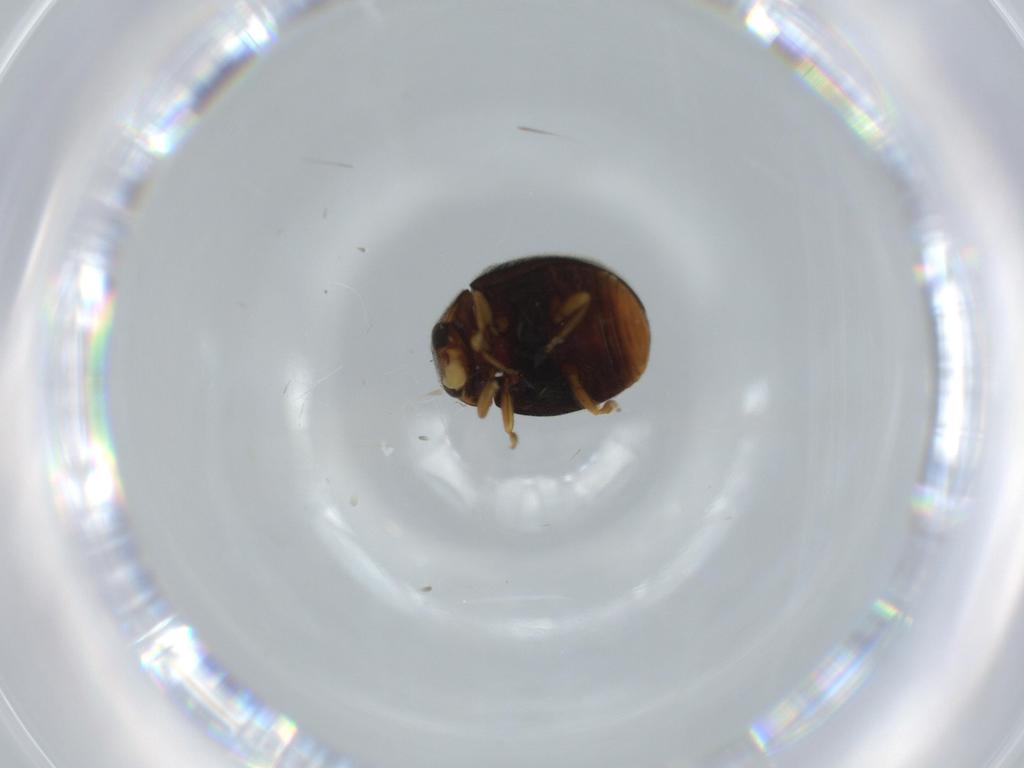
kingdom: Animalia
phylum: Arthropoda
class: Insecta
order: Coleoptera
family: Coccinellidae
